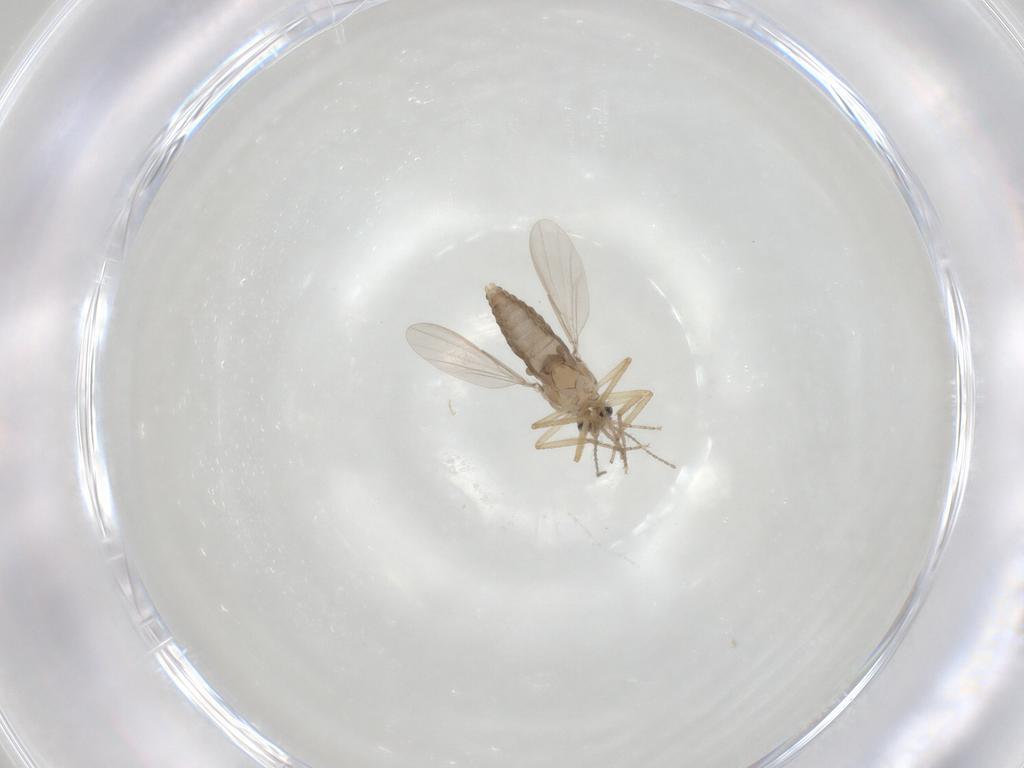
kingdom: Animalia
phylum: Arthropoda
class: Insecta
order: Diptera
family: Ceratopogonidae
